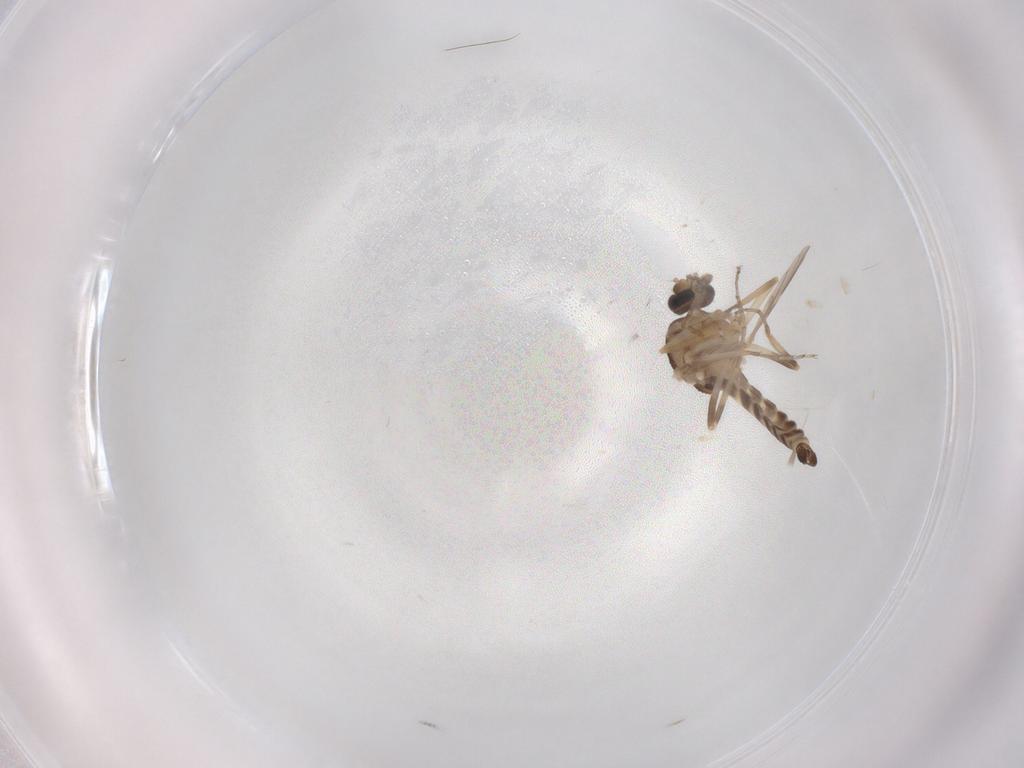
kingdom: Animalia
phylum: Arthropoda
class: Insecta
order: Diptera
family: Ceratopogonidae
